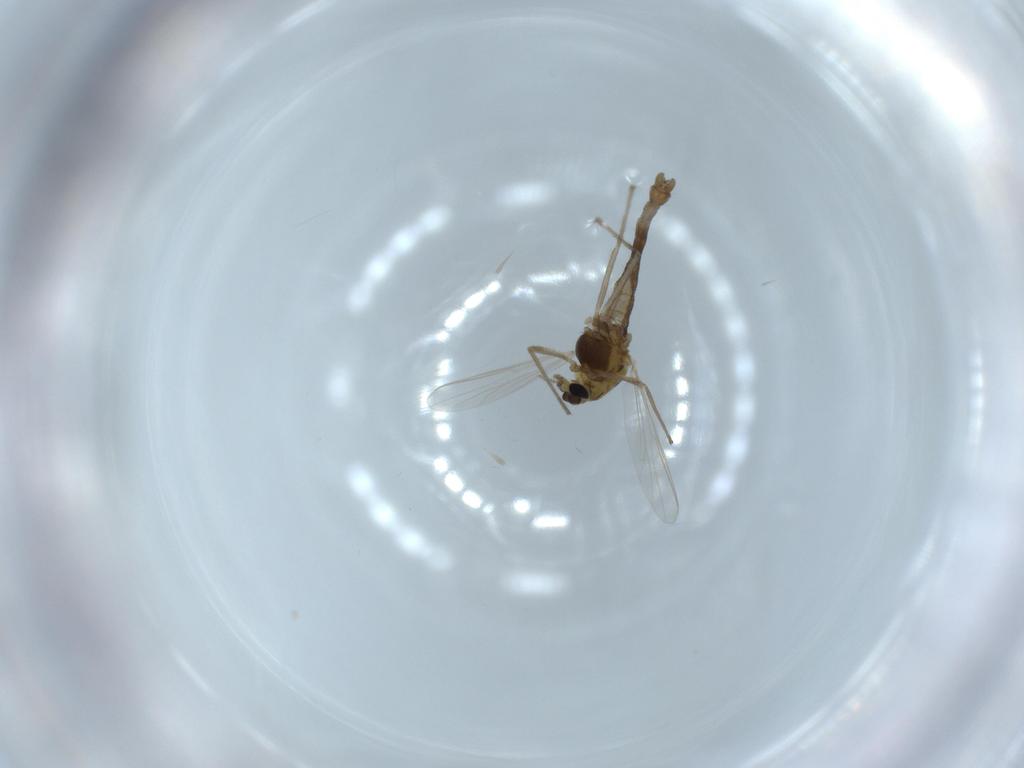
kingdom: Animalia
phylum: Arthropoda
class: Insecta
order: Diptera
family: Chironomidae
